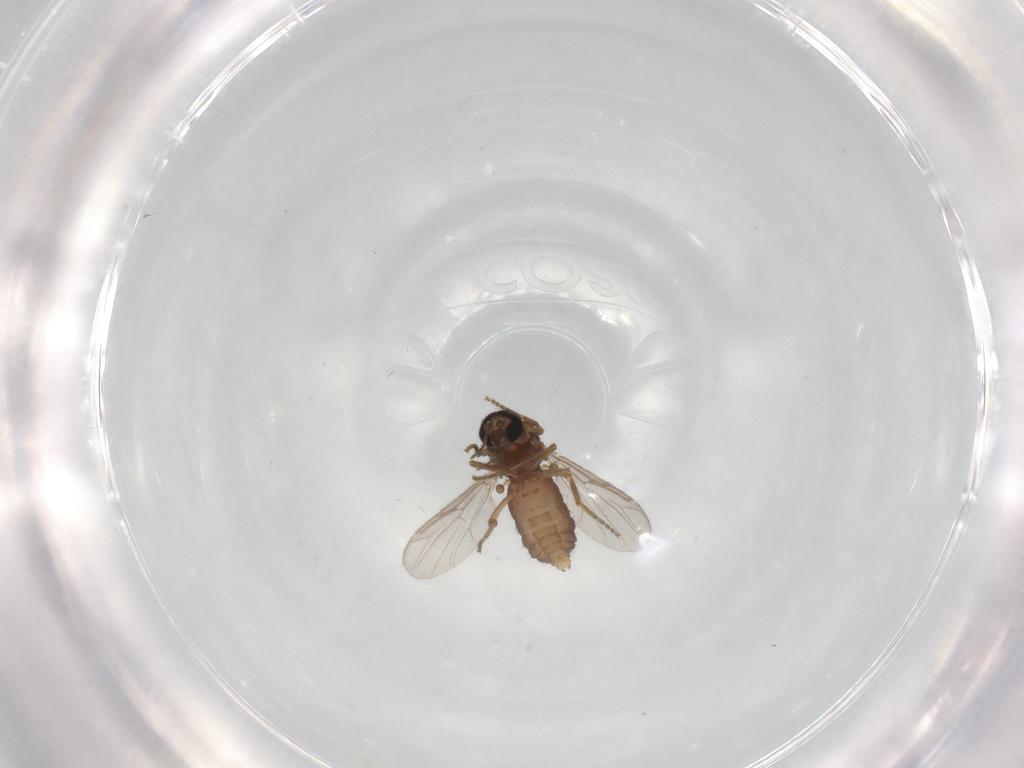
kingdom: Animalia
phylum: Arthropoda
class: Insecta
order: Diptera
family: Ceratopogonidae
